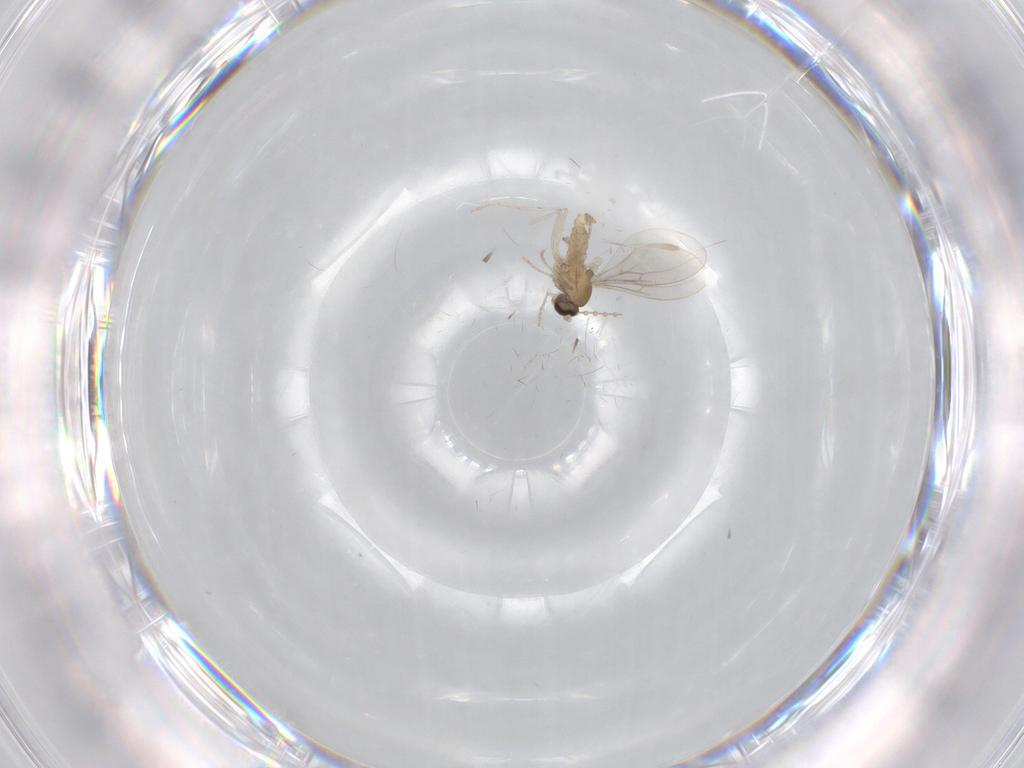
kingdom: Animalia
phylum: Arthropoda
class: Insecta
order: Diptera
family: Cecidomyiidae
